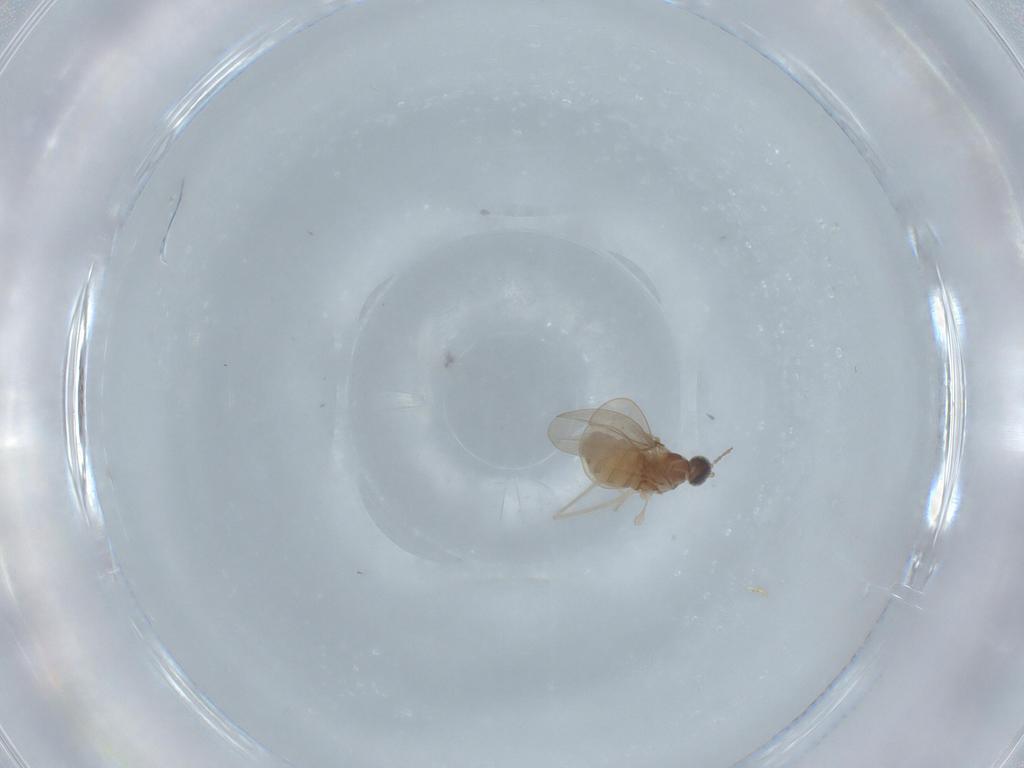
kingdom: Animalia
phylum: Arthropoda
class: Insecta
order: Diptera
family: Cecidomyiidae
